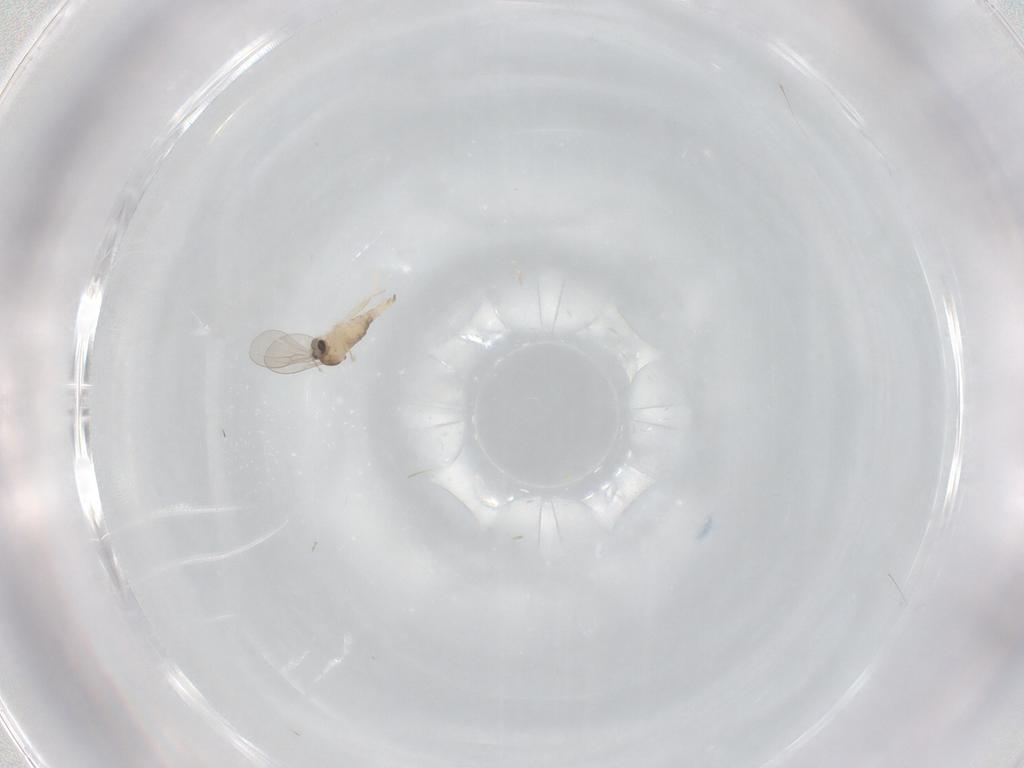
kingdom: Animalia
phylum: Arthropoda
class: Insecta
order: Diptera
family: Cecidomyiidae
